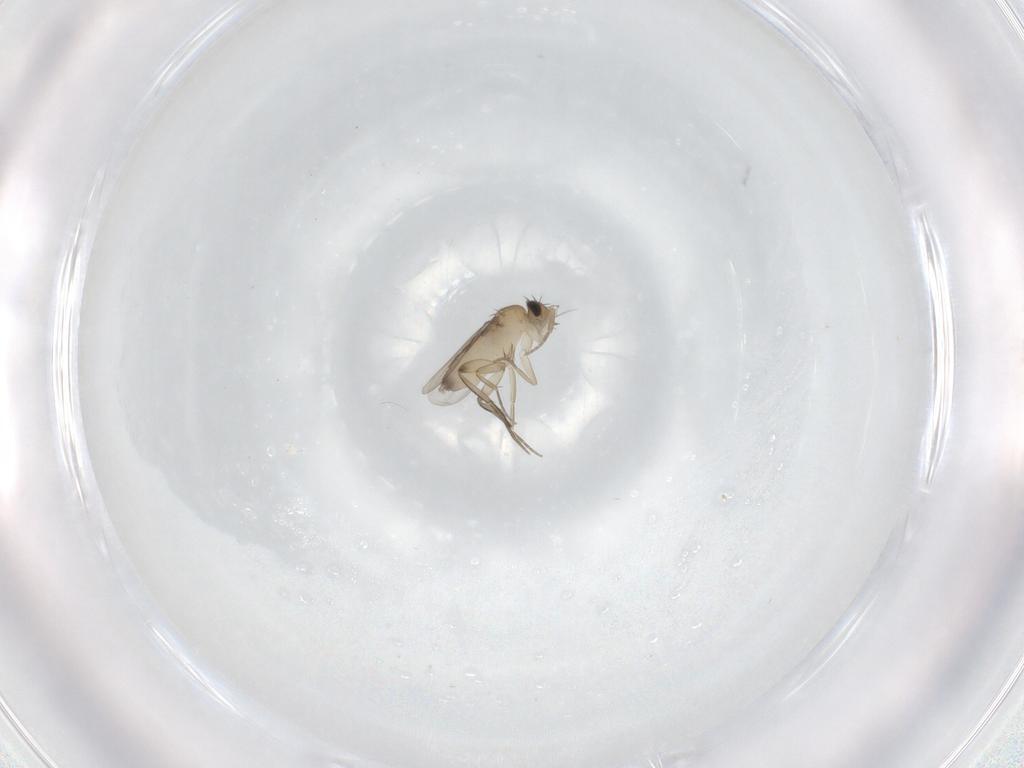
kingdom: Animalia
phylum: Arthropoda
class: Insecta
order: Diptera
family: Phoridae
